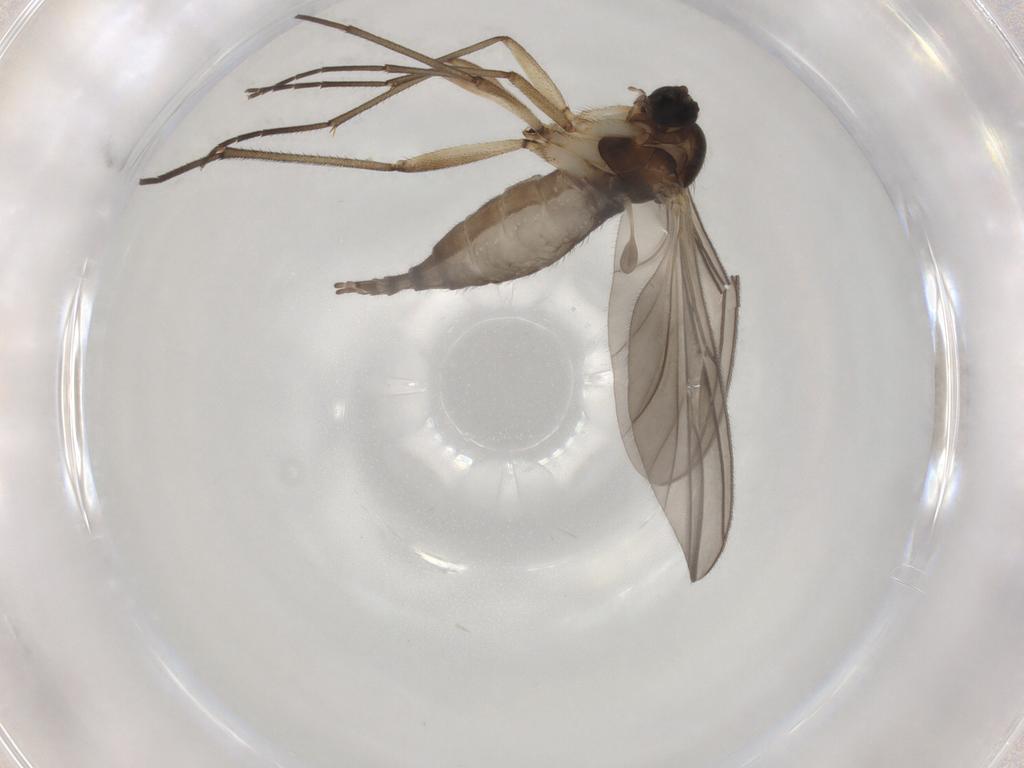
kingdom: Animalia
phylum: Arthropoda
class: Insecta
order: Diptera
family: Sciaridae
